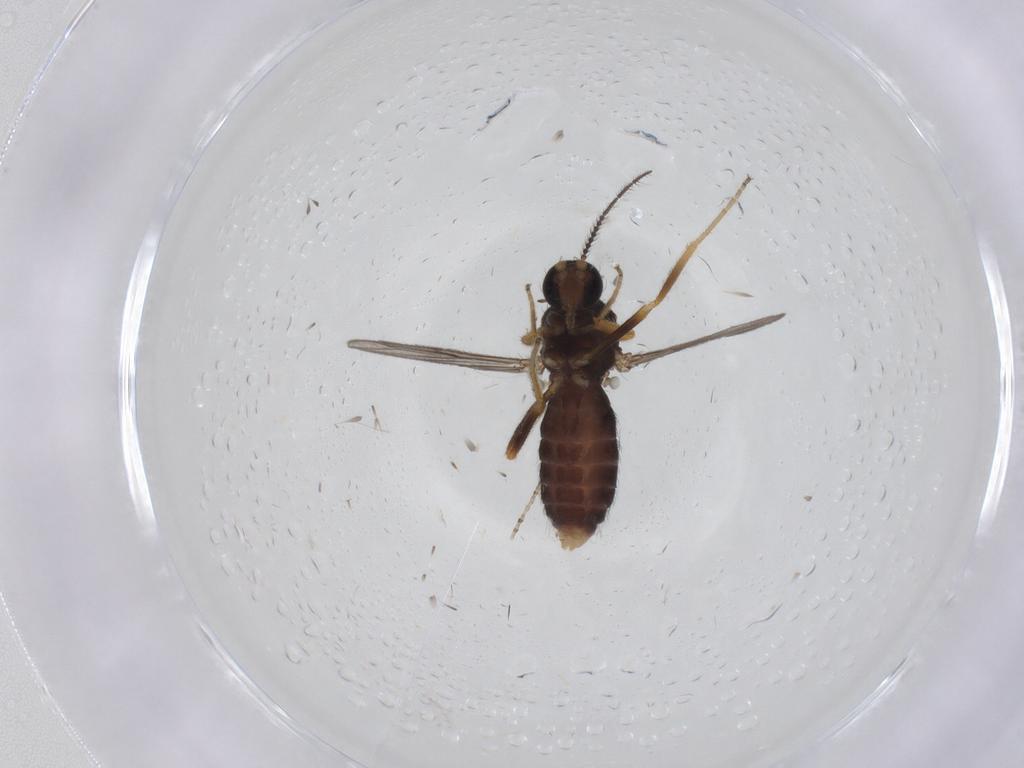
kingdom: Animalia
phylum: Arthropoda
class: Insecta
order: Diptera
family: Ceratopogonidae
